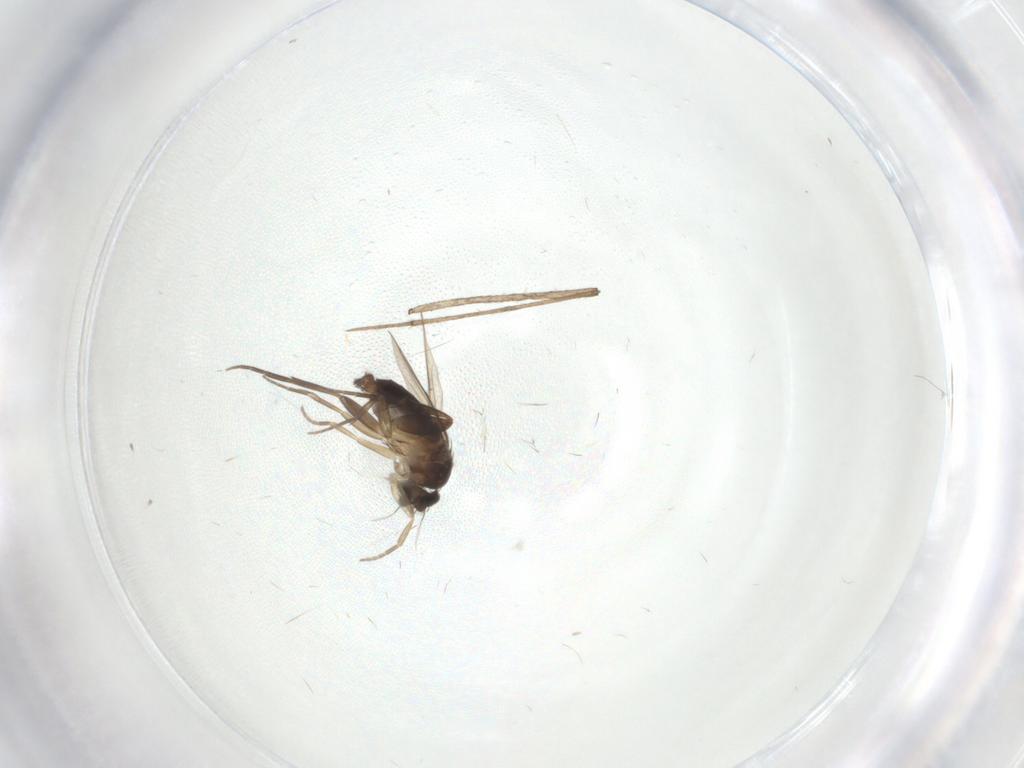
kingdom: Animalia
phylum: Arthropoda
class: Insecta
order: Diptera
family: Phoridae
